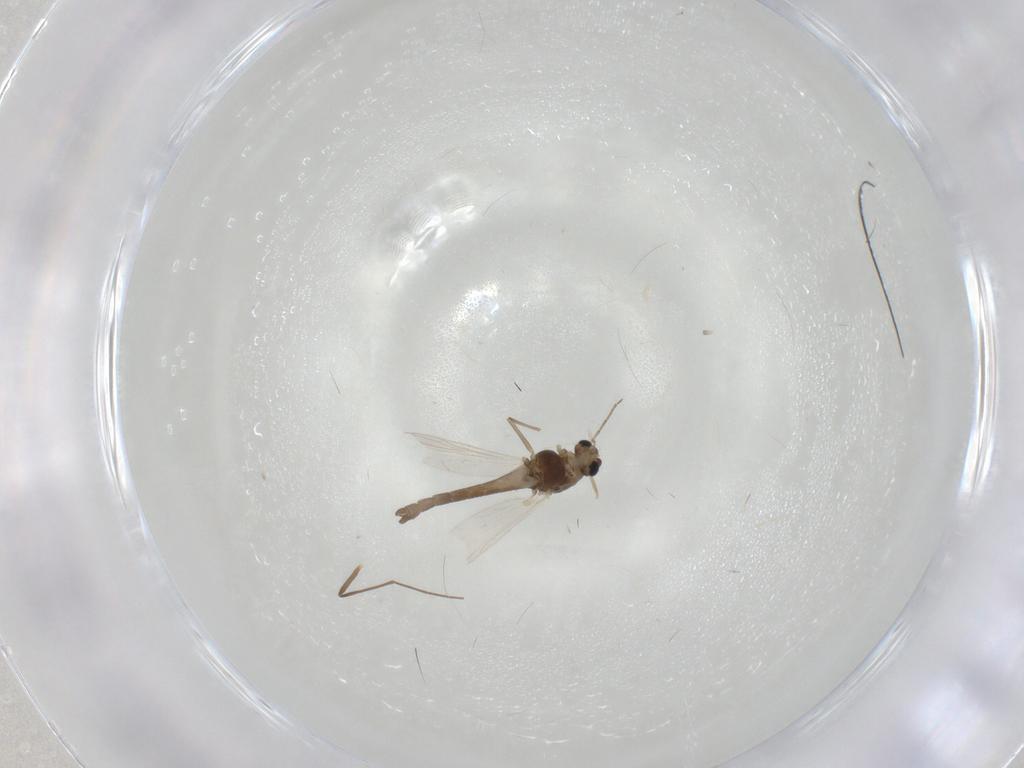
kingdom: Animalia
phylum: Arthropoda
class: Insecta
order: Diptera
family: Chironomidae
